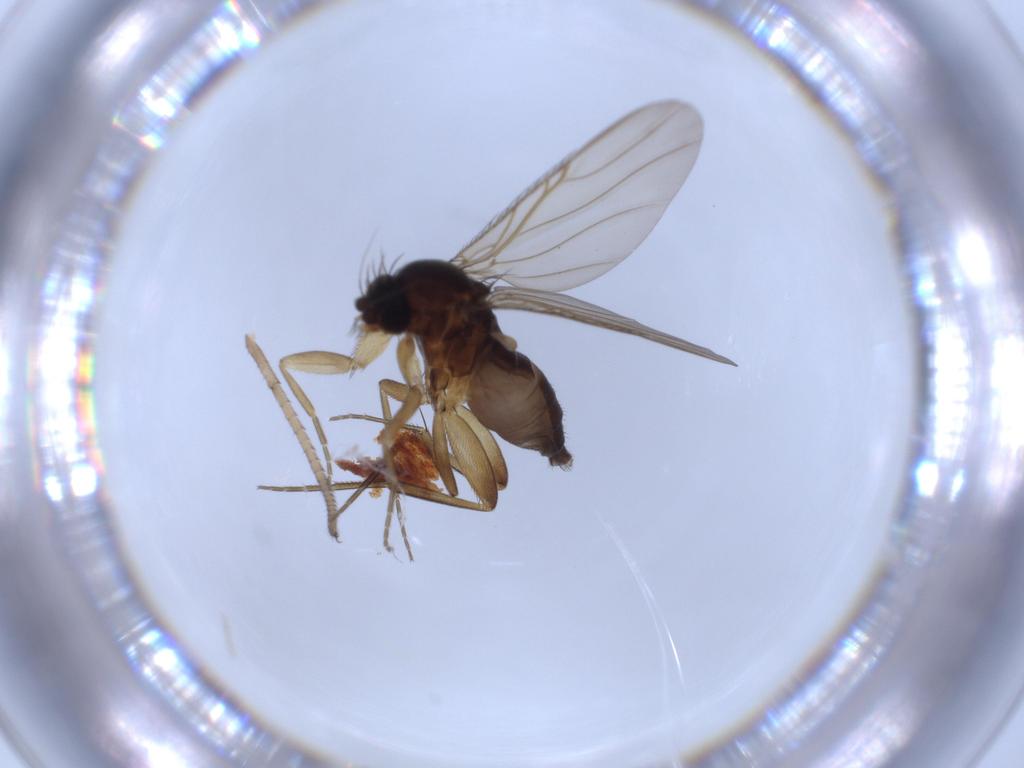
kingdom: Animalia
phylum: Arthropoda
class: Insecta
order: Diptera
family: Phoridae
